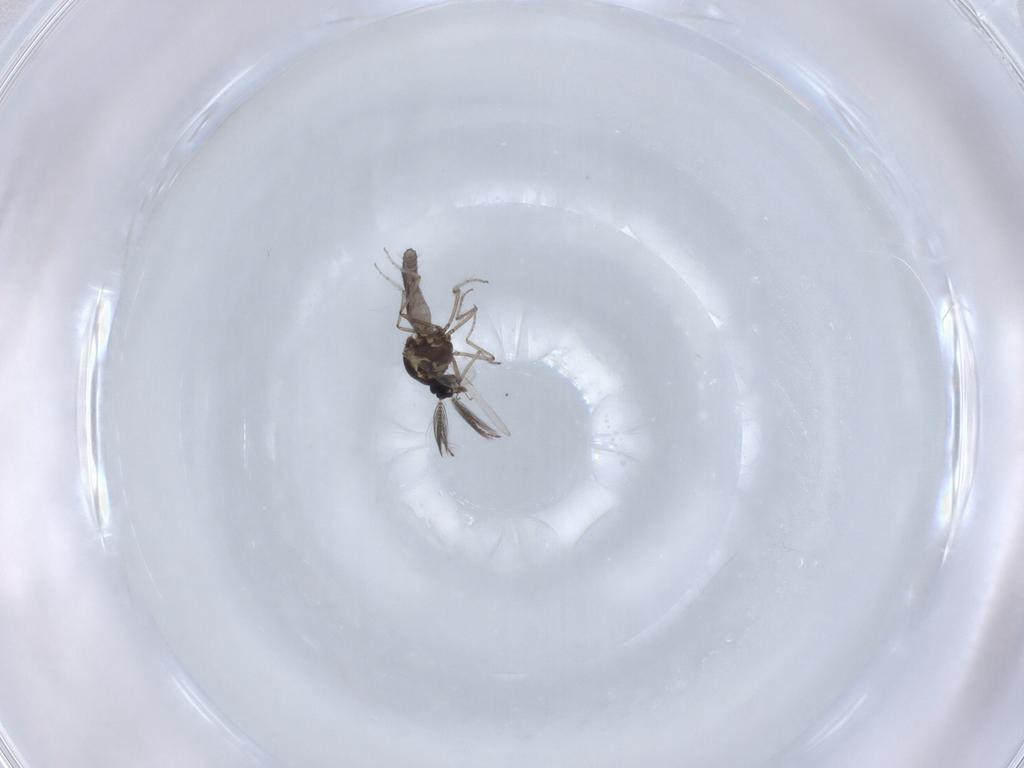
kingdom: Animalia
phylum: Arthropoda
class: Insecta
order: Diptera
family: Ceratopogonidae
